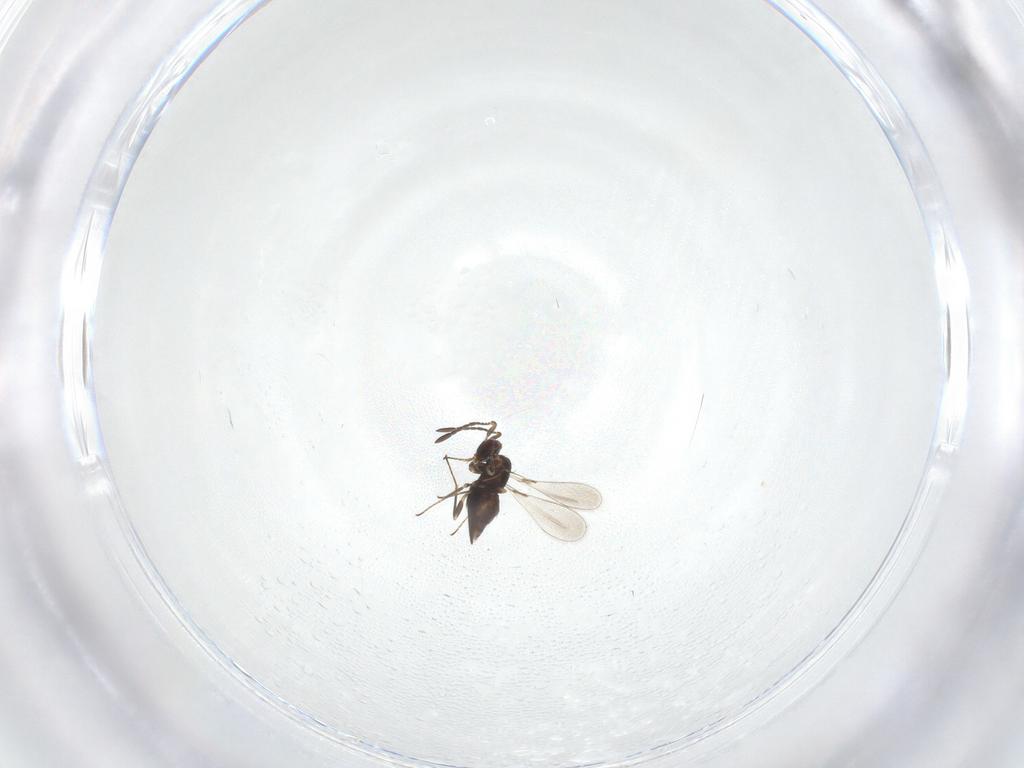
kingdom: Animalia
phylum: Arthropoda
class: Insecta
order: Hymenoptera
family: Mymaridae
